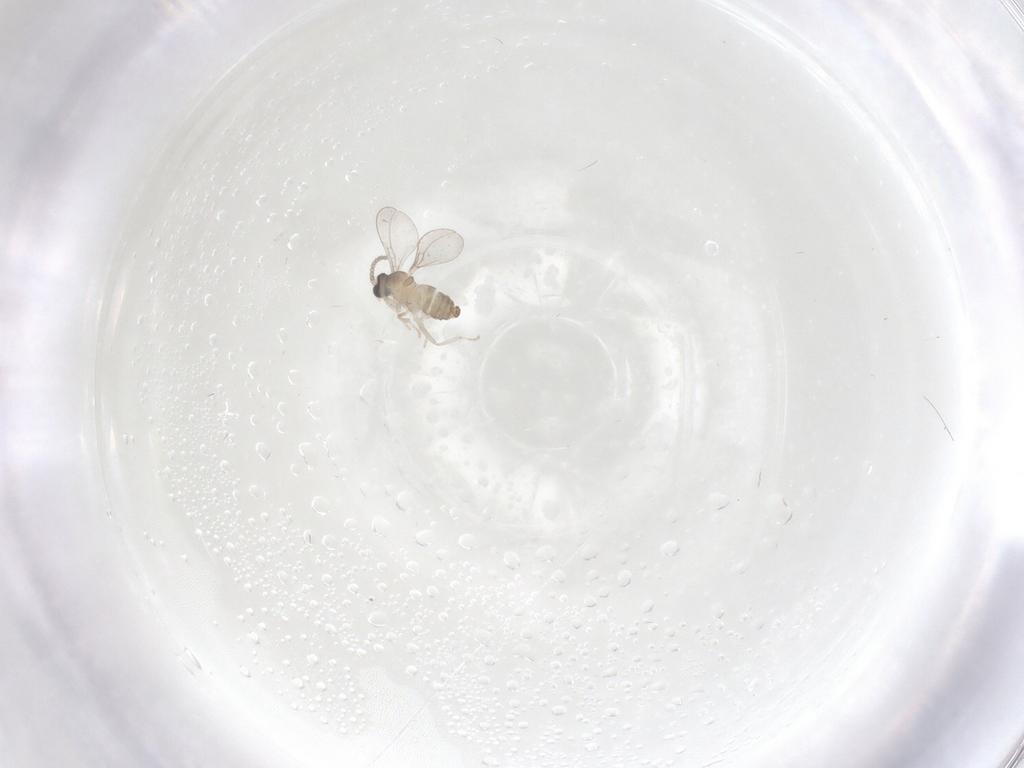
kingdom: Animalia
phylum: Arthropoda
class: Insecta
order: Diptera
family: Cecidomyiidae
